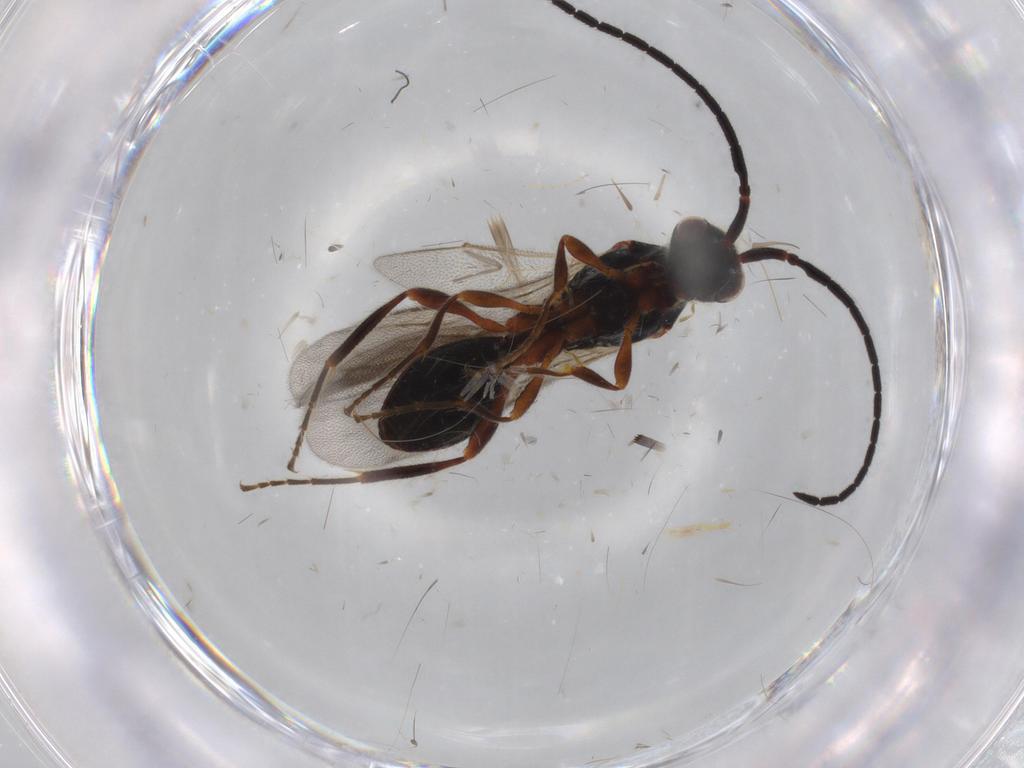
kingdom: Animalia
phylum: Arthropoda
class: Insecta
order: Hymenoptera
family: Diapriidae
